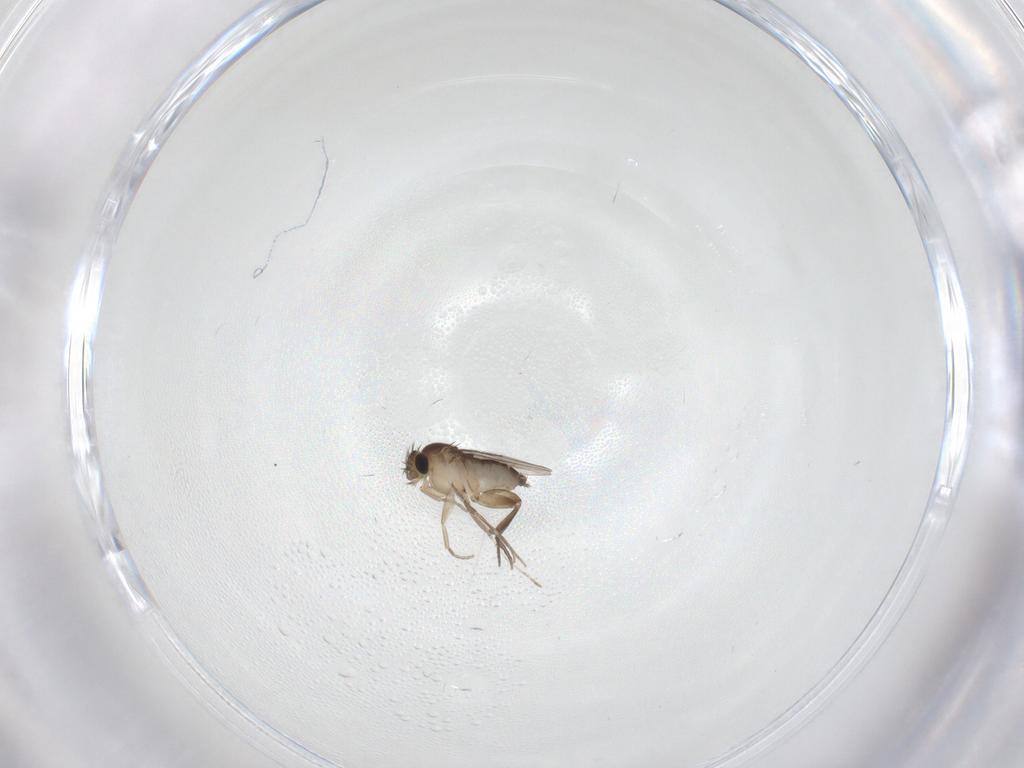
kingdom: Animalia
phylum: Arthropoda
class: Insecta
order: Diptera
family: Phoridae
